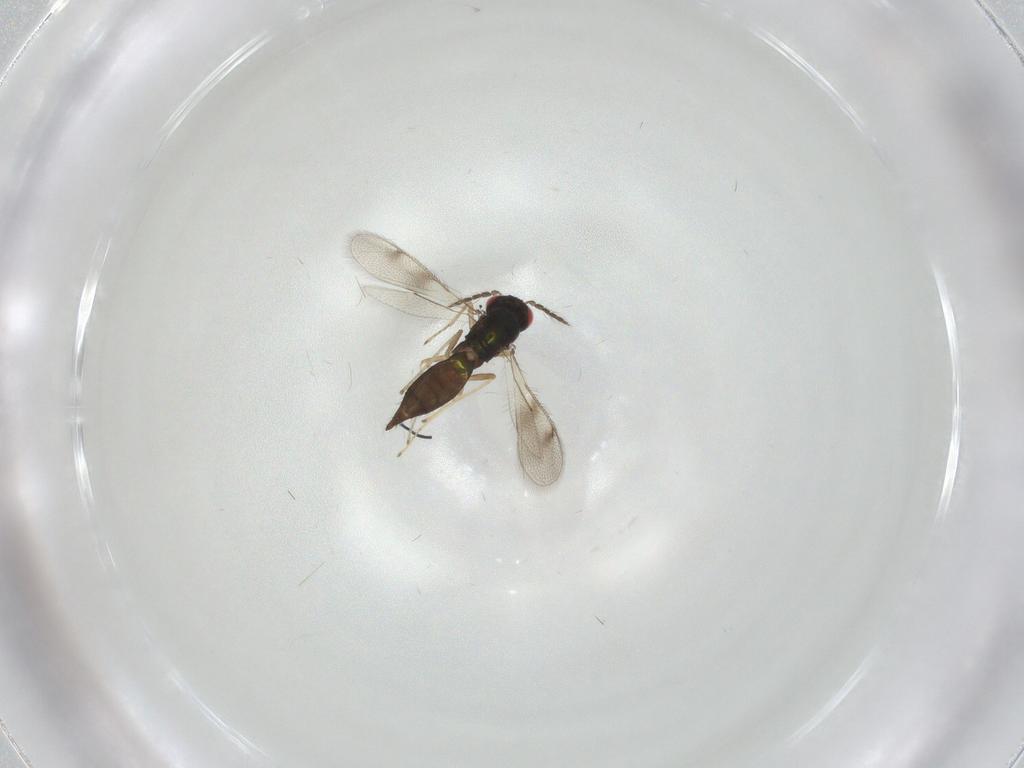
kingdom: Animalia
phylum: Arthropoda
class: Insecta
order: Hymenoptera
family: Eulophidae
